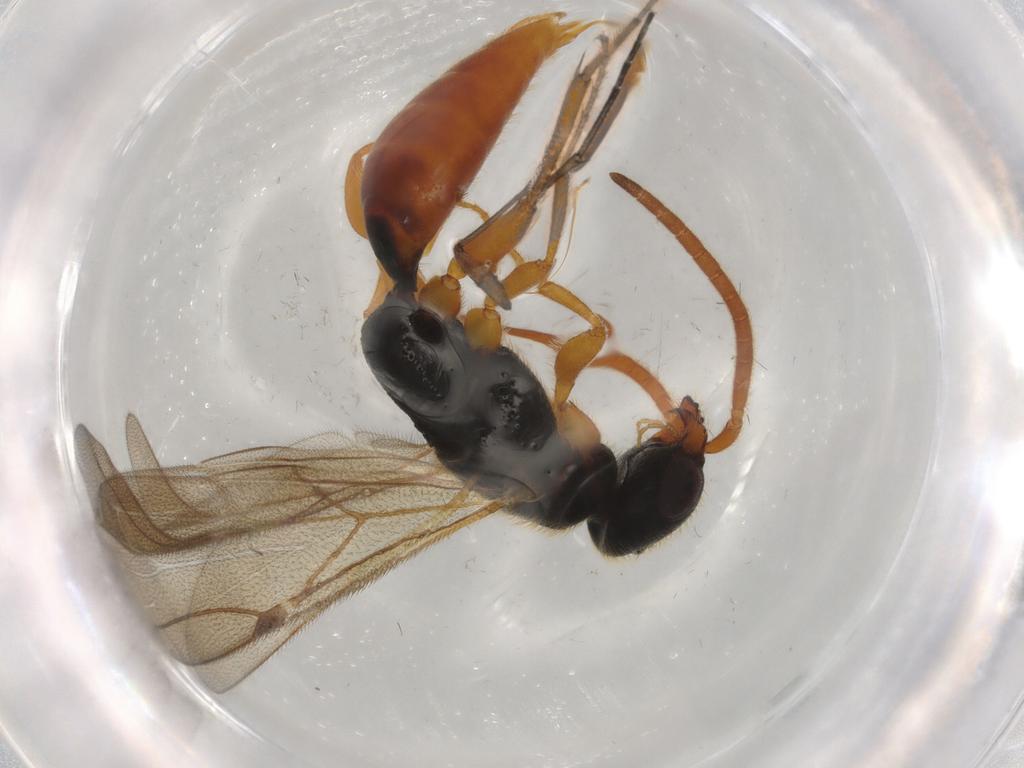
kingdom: Animalia
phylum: Arthropoda
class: Insecta
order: Hymenoptera
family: Bethylidae
